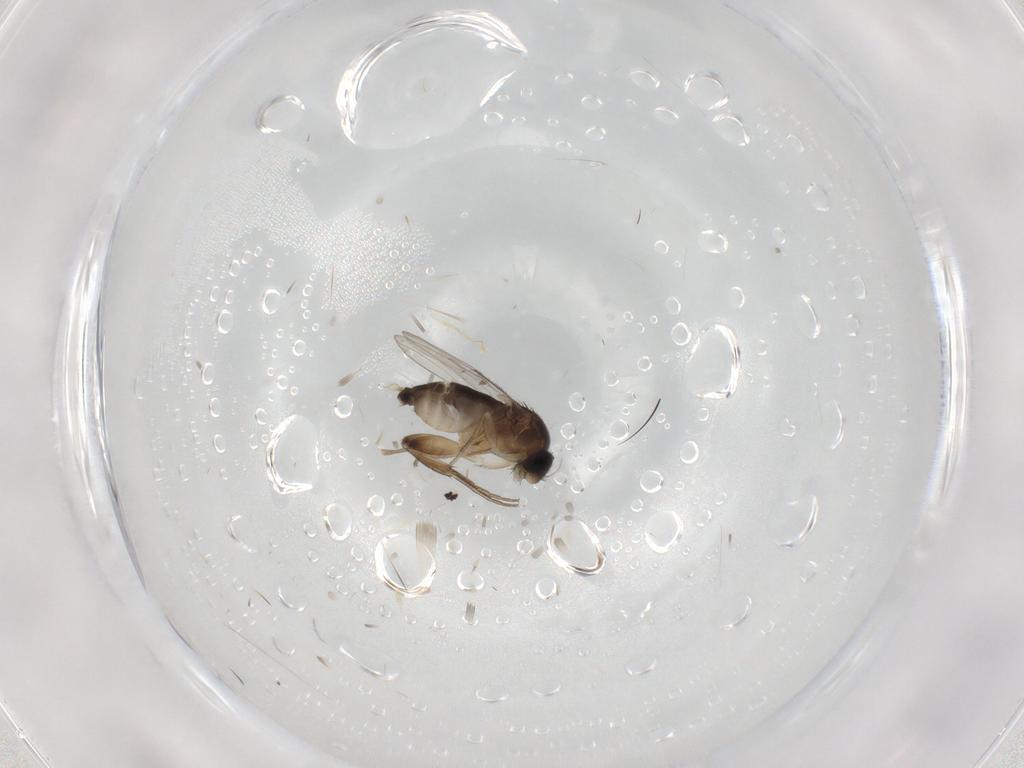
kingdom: Animalia
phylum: Arthropoda
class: Insecta
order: Diptera
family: Phoridae
